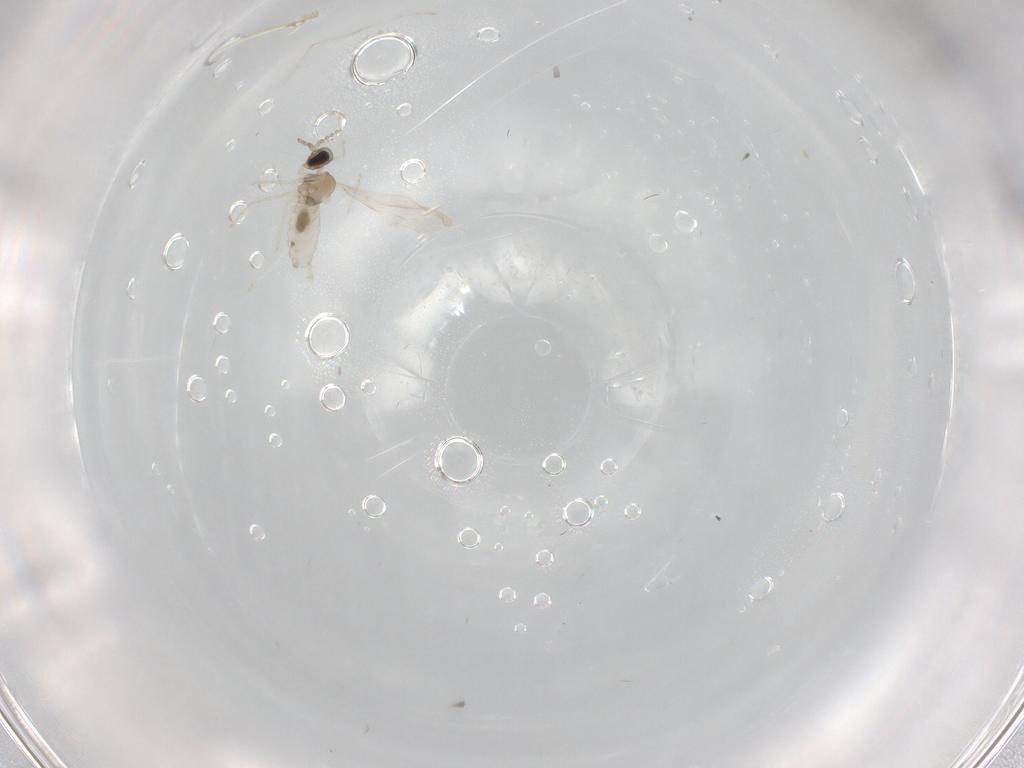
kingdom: Animalia
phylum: Arthropoda
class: Insecta
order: Diptera
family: Cecidomyiidae
